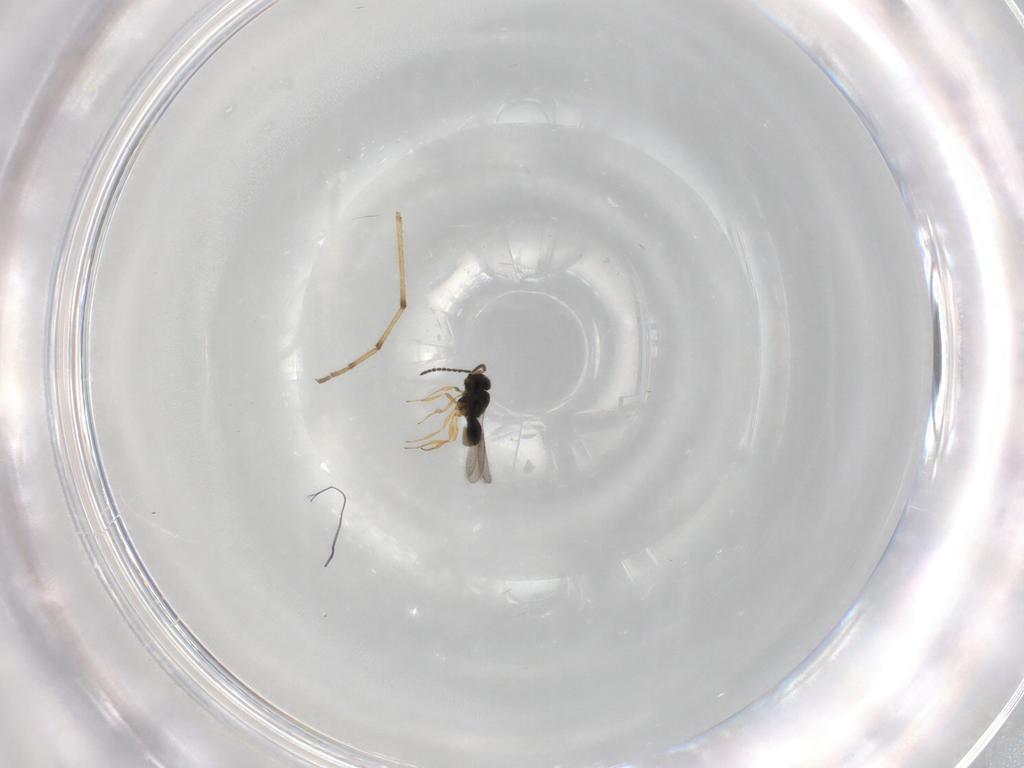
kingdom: Animalia
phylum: Arthropoda
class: Insecta
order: Hymenoptera
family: Scelionidae
